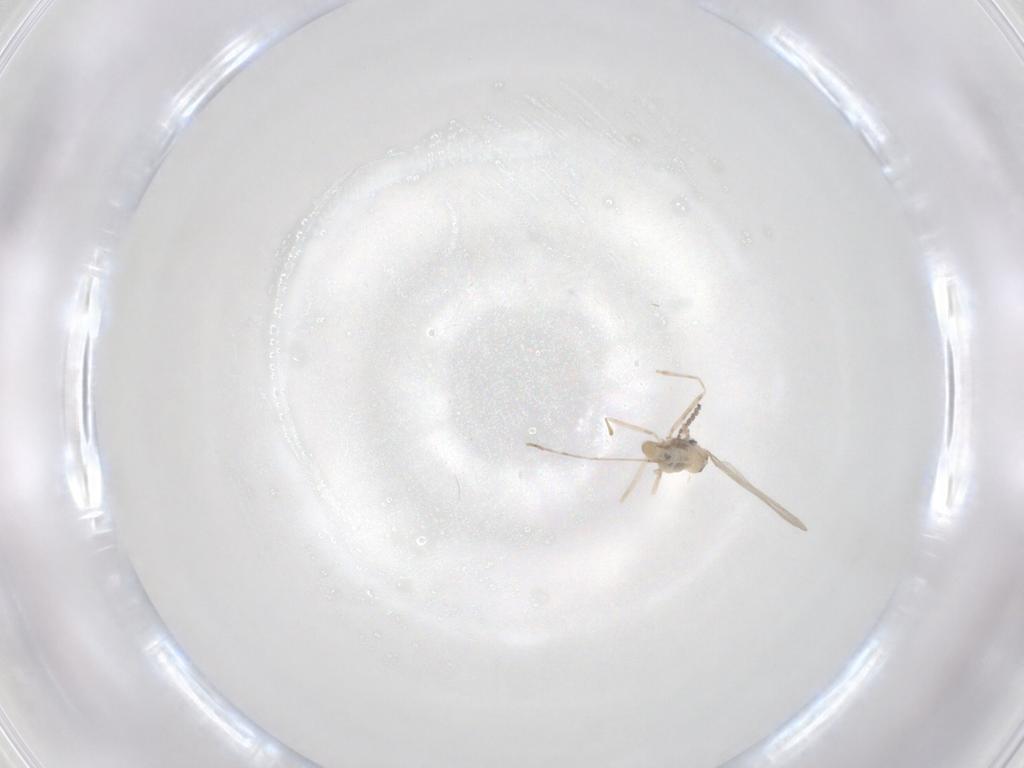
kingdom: Animalia
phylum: Arthropoda
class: Insecta
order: Diptera
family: Cecidomyiidae
